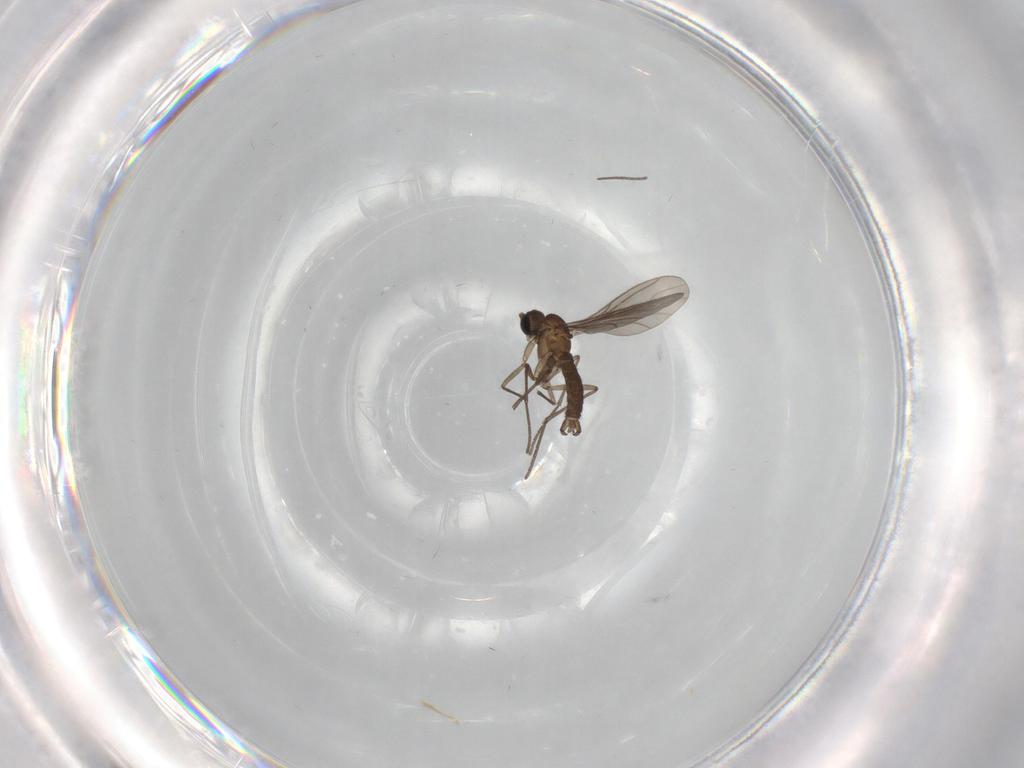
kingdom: Animalia
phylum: Arthropoda
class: Insecta
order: Diptera
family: Sciaridae
